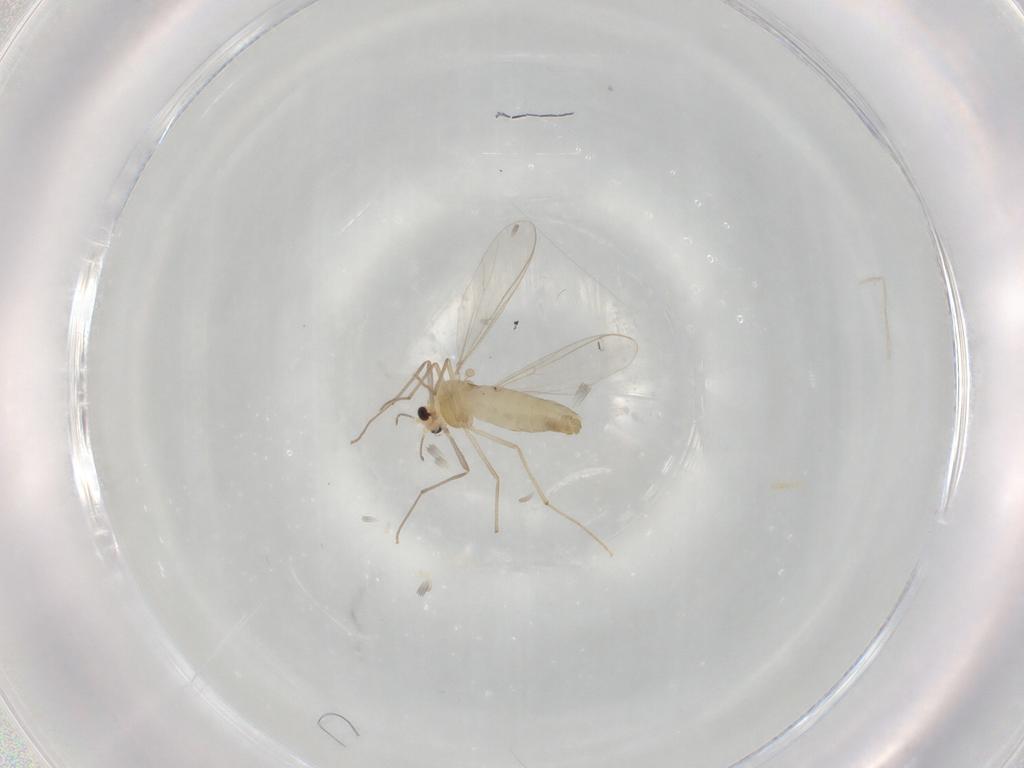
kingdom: Animalia
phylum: Arthropoda
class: Insecta
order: Diptera
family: Chironomidae
